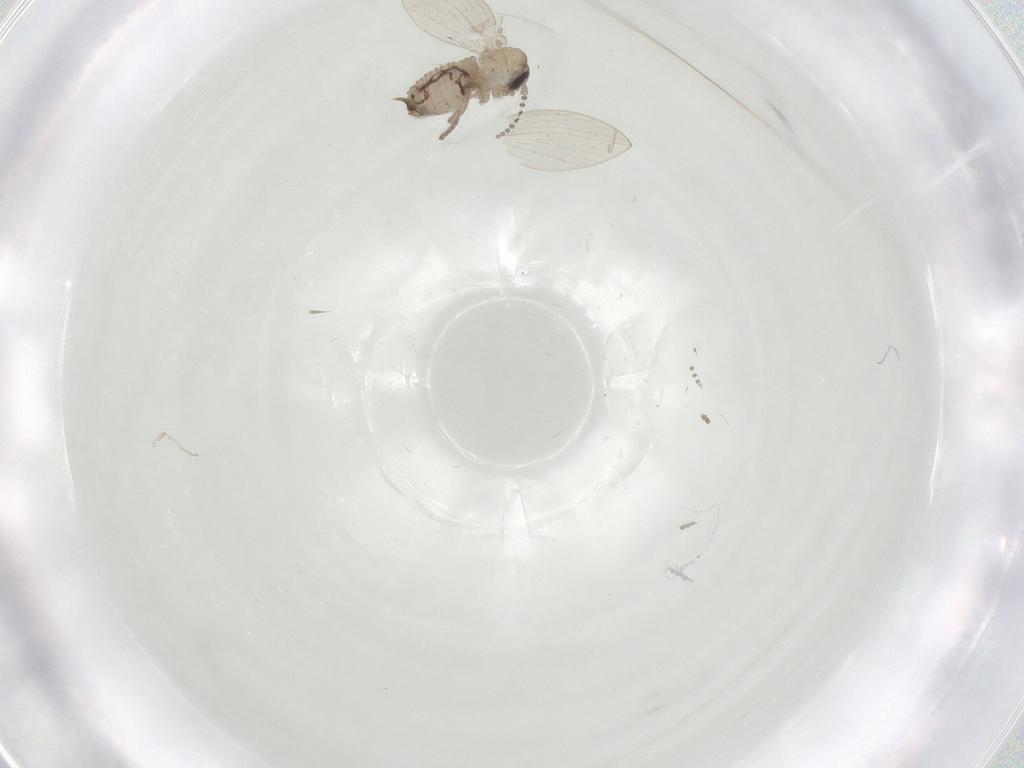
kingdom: Animalia
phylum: Arthropoda
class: Insecta
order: Diptera
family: Psychodidae
